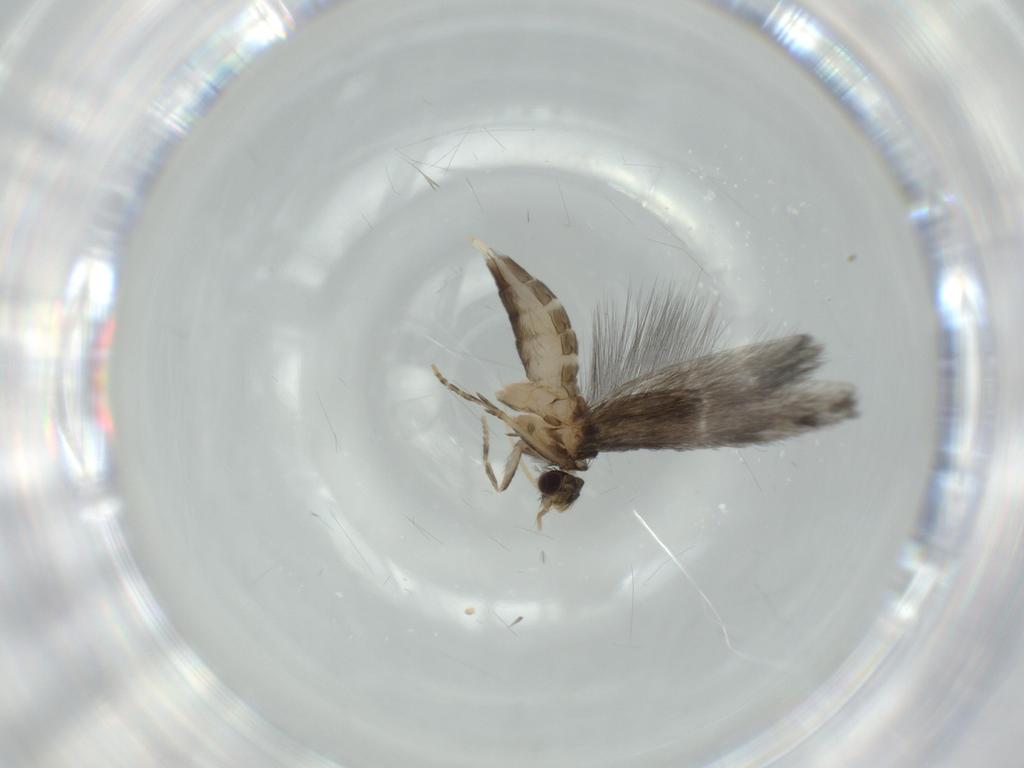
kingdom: Animalia
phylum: Arthropoda
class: Insecta
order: Trichoptera
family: Hydroptilidae
